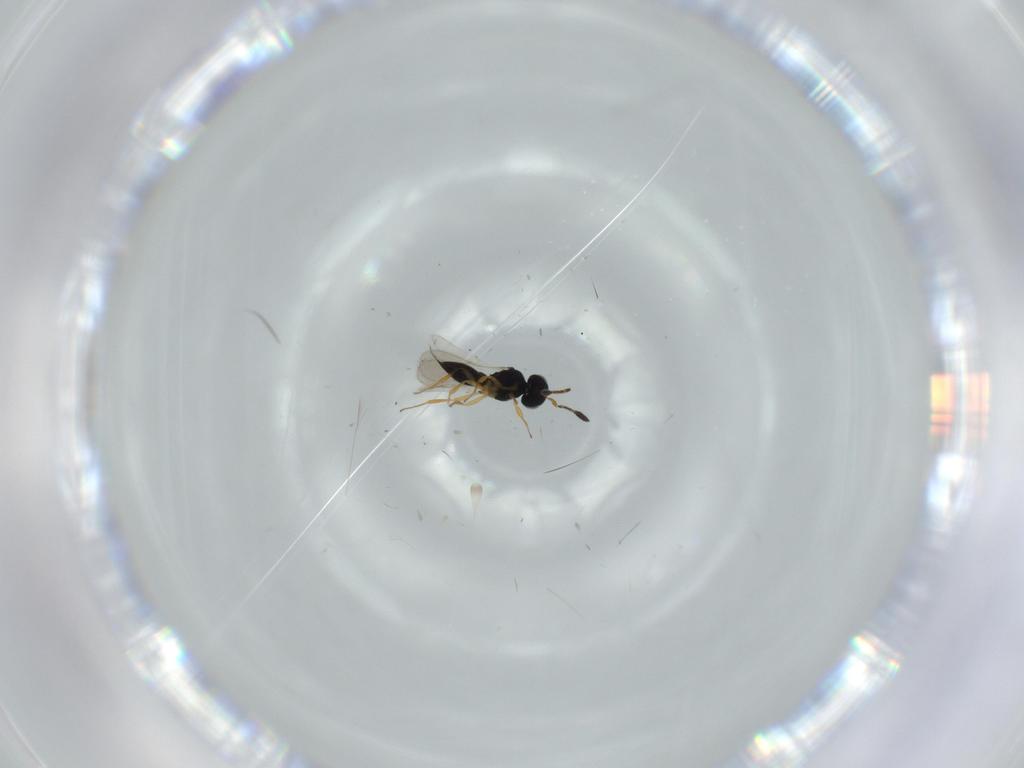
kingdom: Animalia
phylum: Arthropoda
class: Insecta
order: Hymenoptera
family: Scelionidae
